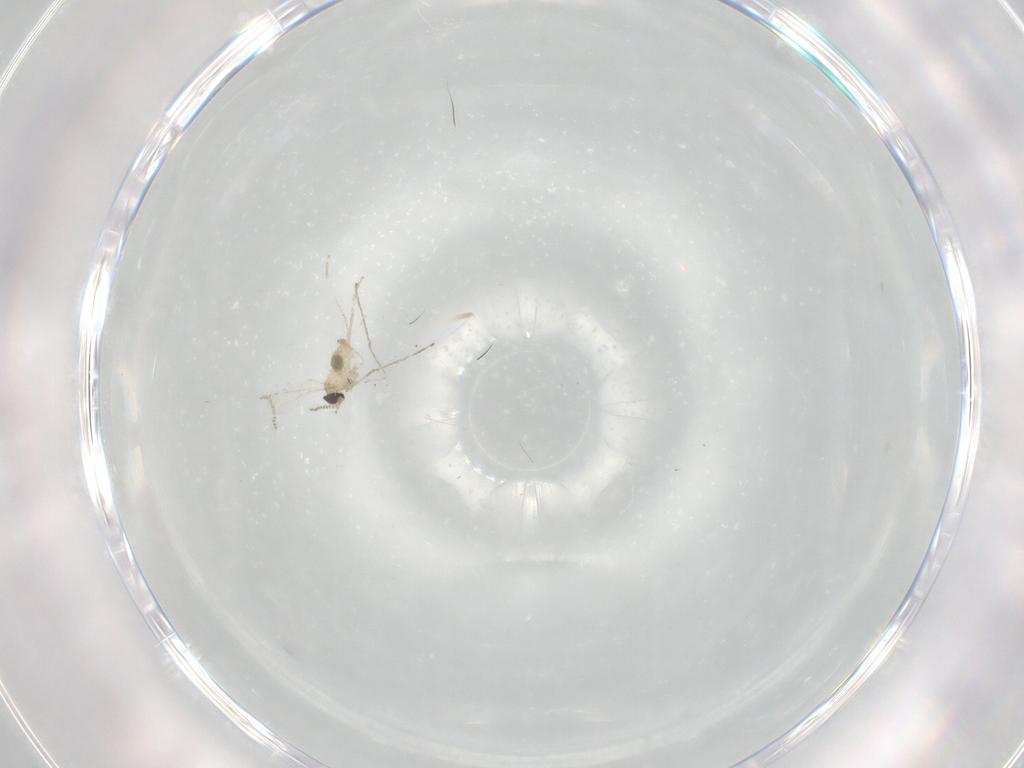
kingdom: Animalia
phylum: Arthropoda
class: Insecta
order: Diptera
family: Dolichopodidae
